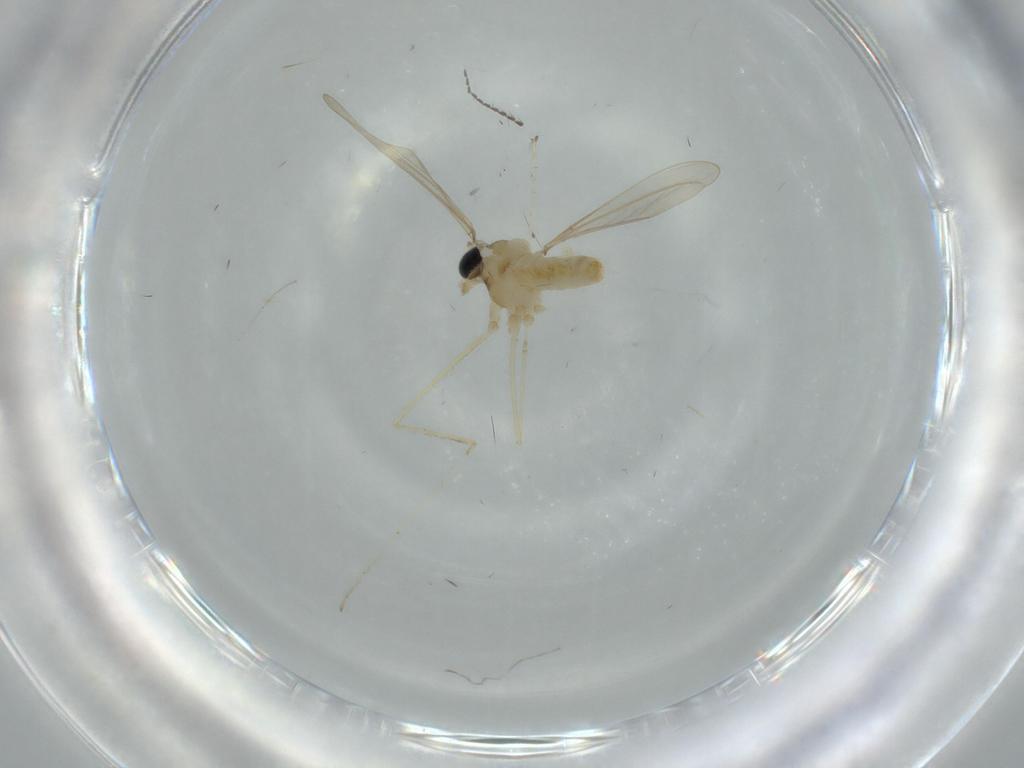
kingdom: Animalia
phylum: Arthropoda
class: Insecta
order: Diptera
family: Cecidomyiidae
